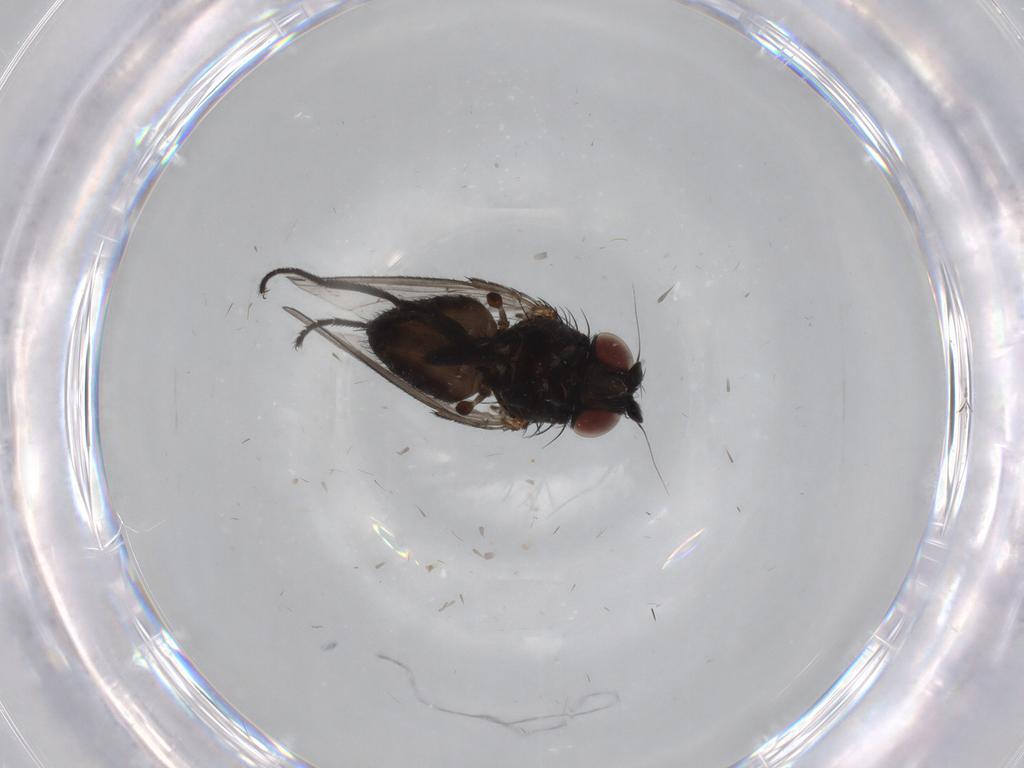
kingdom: Animalia
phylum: Arthropoda
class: Insecta
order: Diptera
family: Milichiidae
